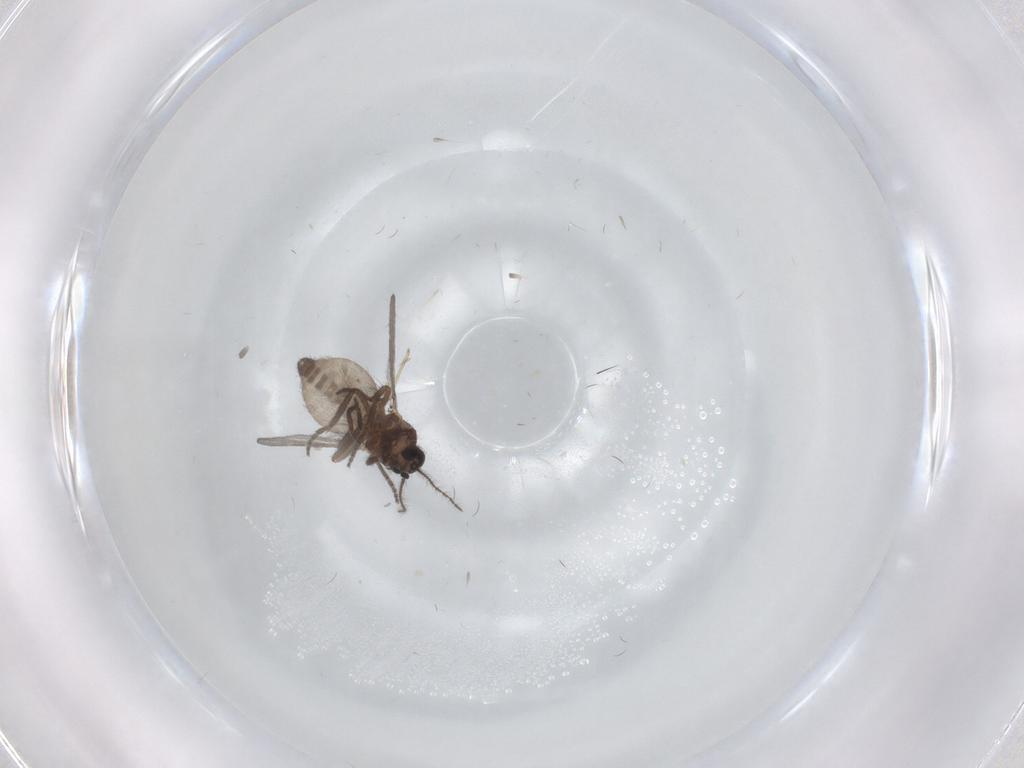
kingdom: Animalia
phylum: Arthropoda
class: Insecta
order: Diptera
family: Ceratopogonidae
